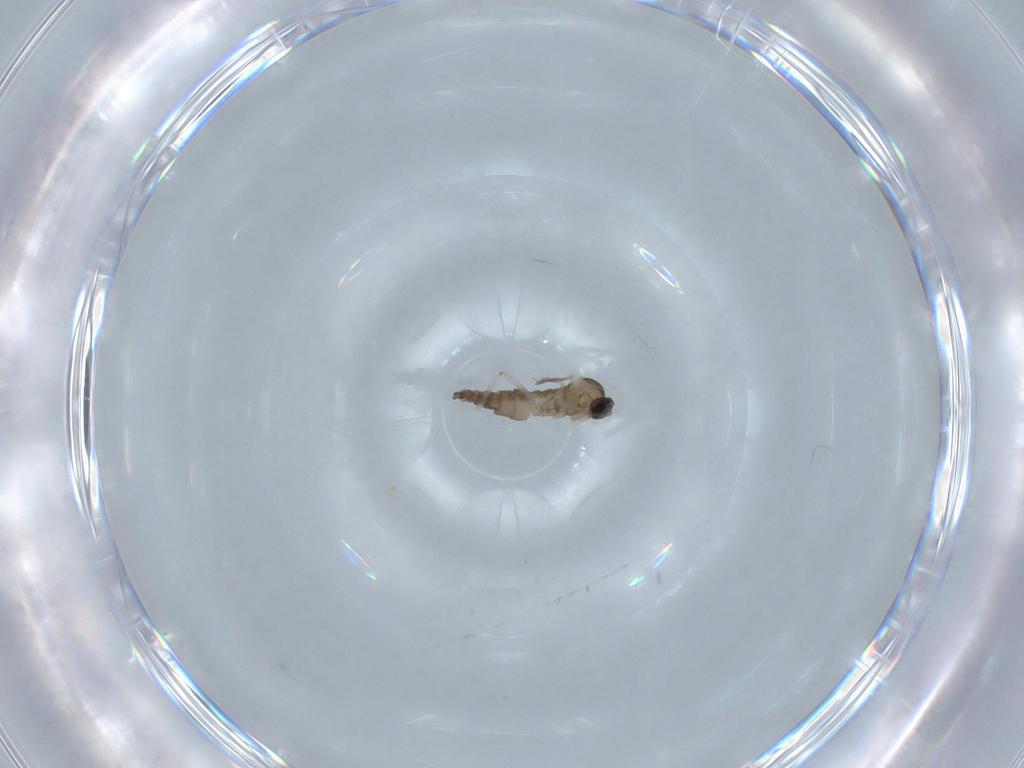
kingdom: Animalia
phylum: Arthropoda
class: Insecta
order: Diptera
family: Cecidomyiidae
